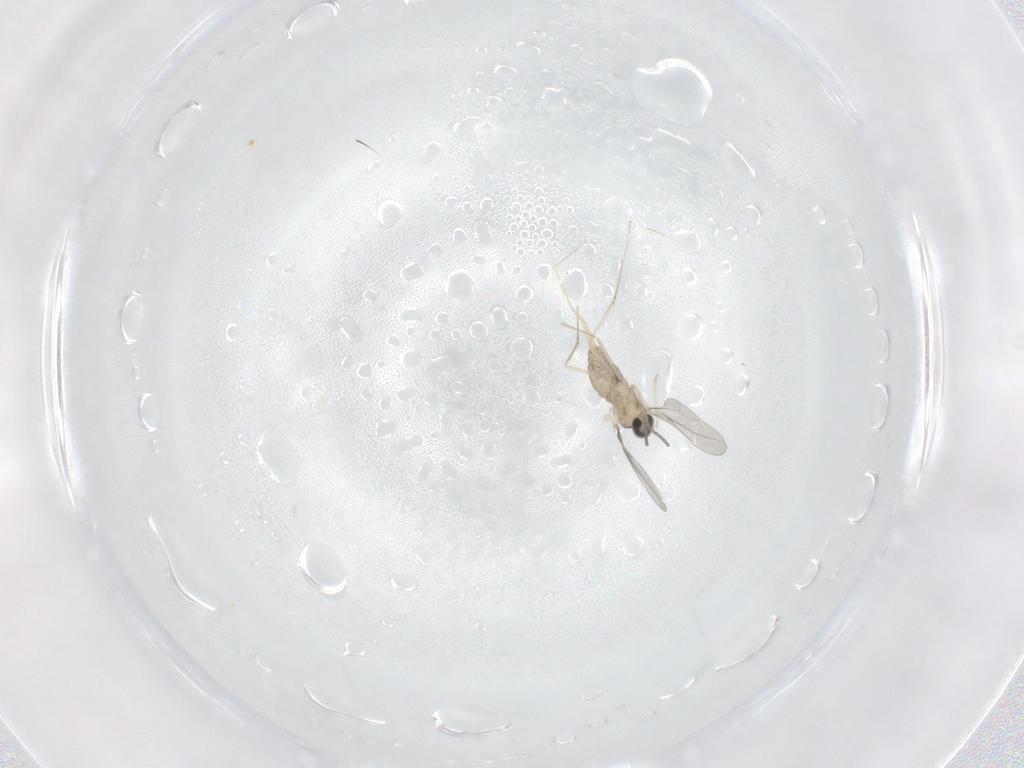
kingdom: Animalia
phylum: Arthropoda
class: Insecta
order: Diptera
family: Cecidomyiidae
